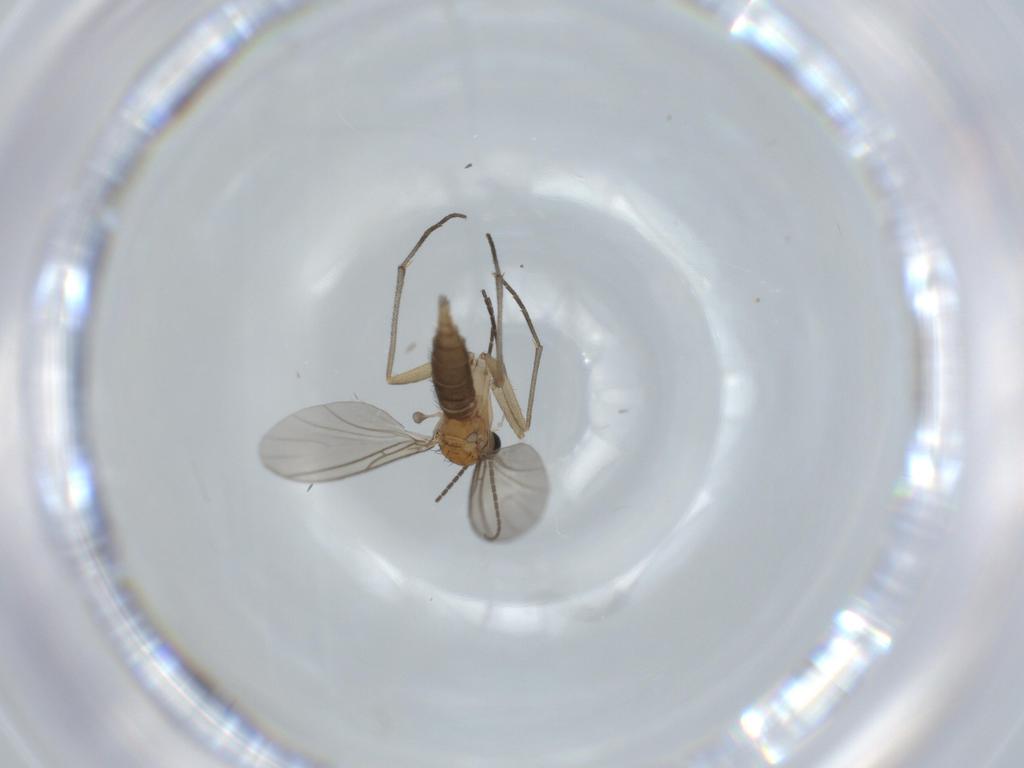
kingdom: Animalia
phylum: Arthropoda
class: Insecta
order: Diptera
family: Sciaridae
